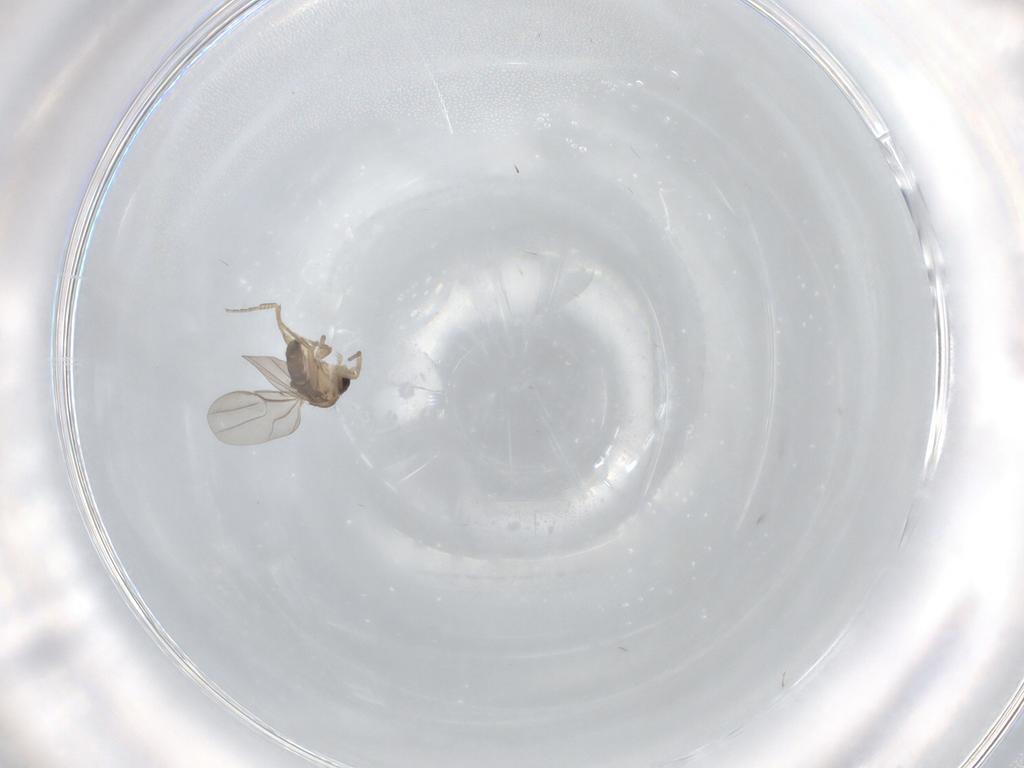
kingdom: Animalia
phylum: Arthropoda
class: Insecta
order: Diptera
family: Chironomidae
